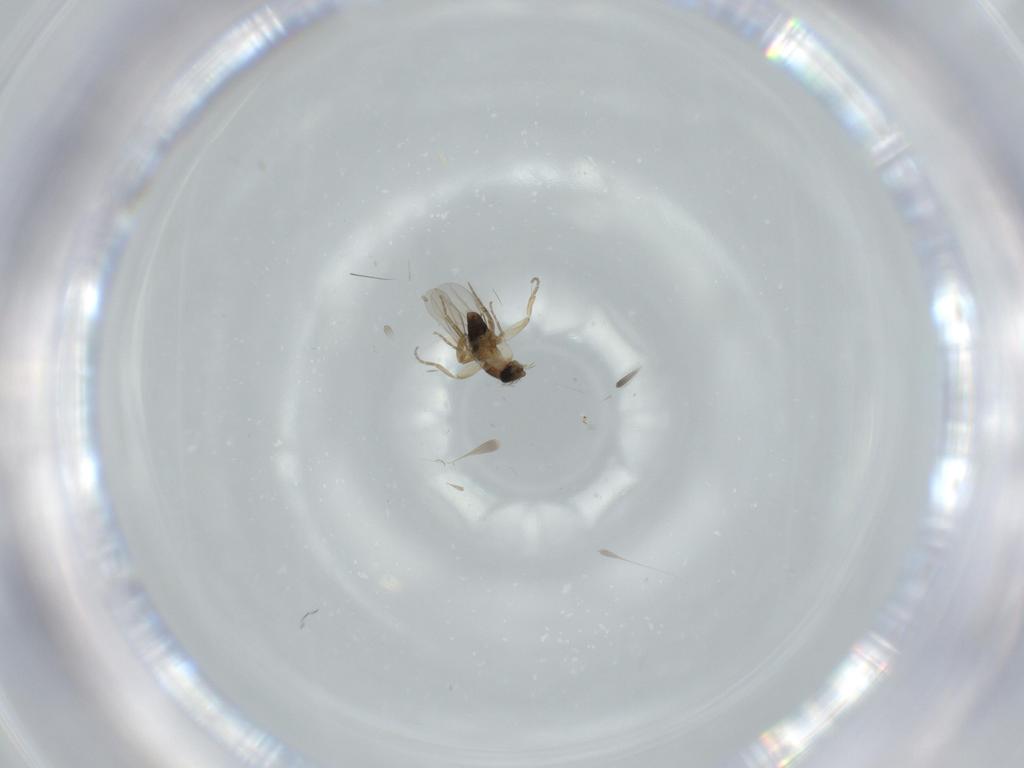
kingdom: Animalia
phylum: Arthropoda
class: Insecta
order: Diptera
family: Phoridae
